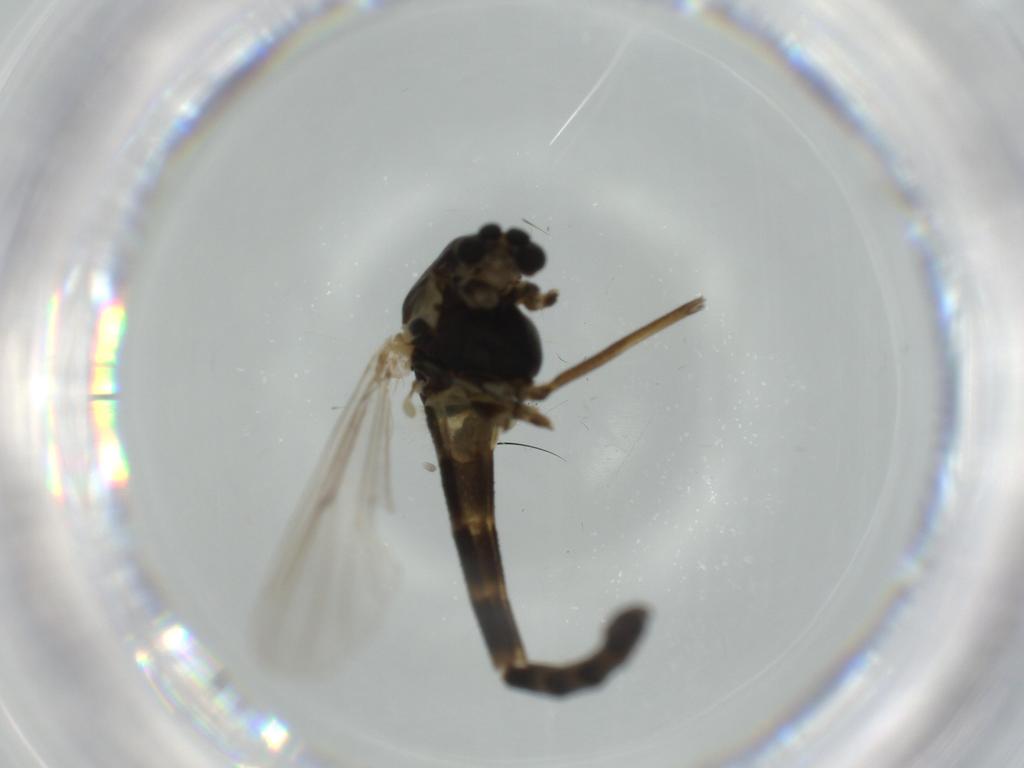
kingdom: Animalia
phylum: Arthropoda
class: Insecta
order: Diptera
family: Cecidomyiidae
